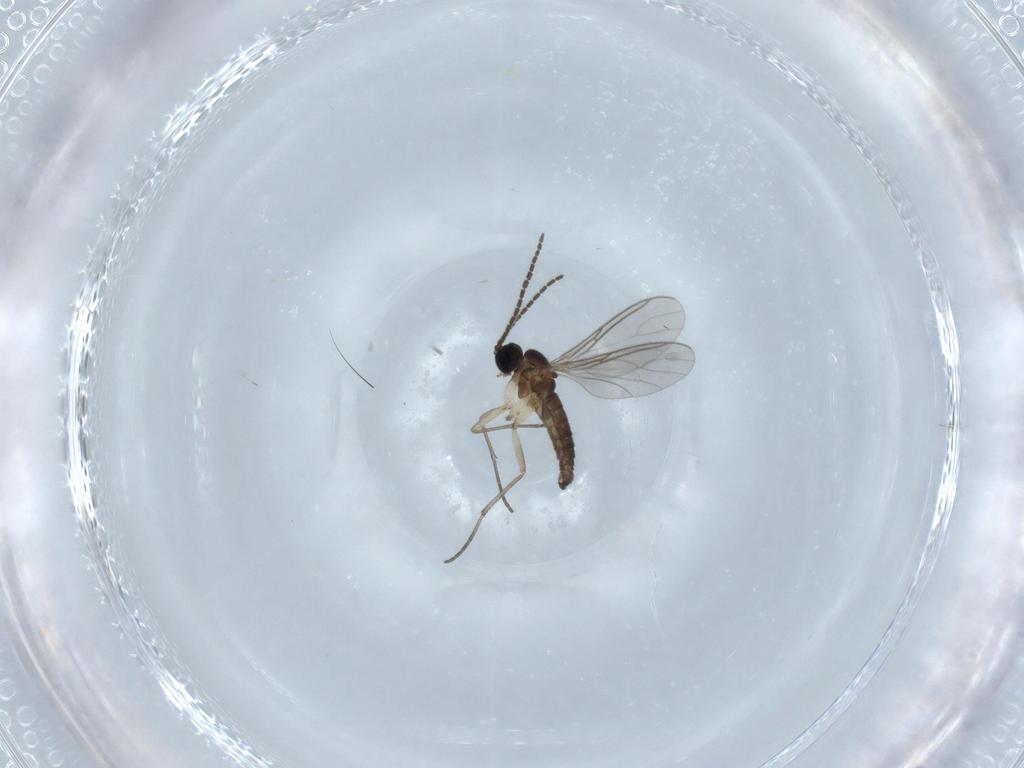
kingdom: Animalia
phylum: Arthropoda
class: Insecta
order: Diptera
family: Sciaridae
